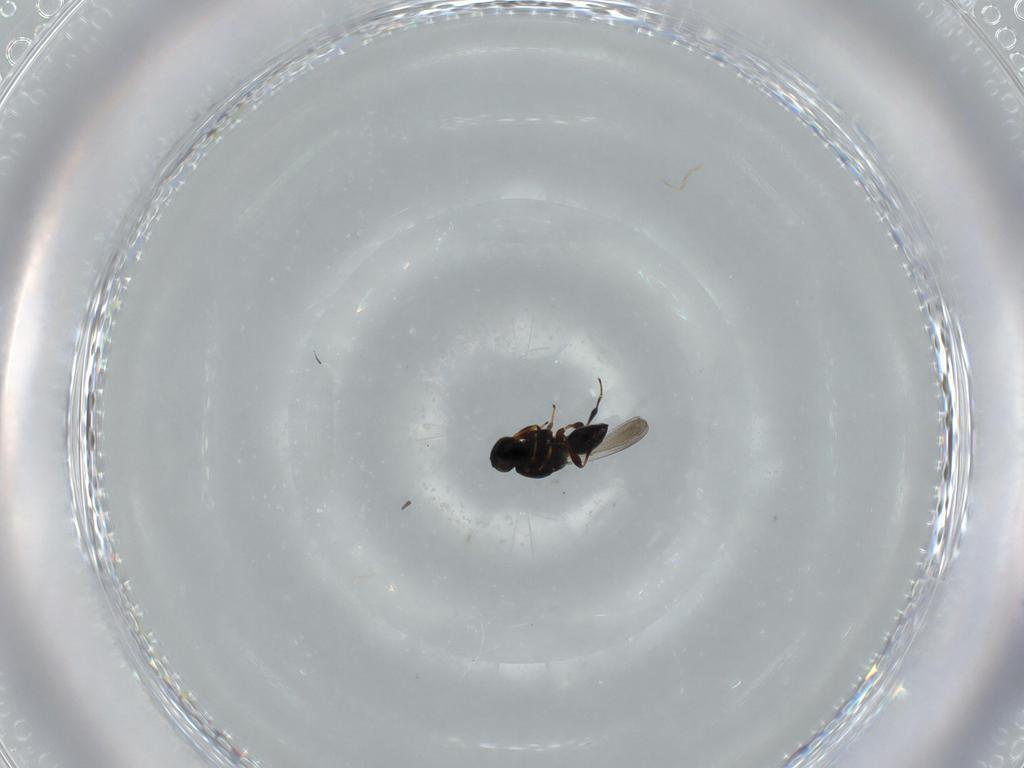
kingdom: Animalia
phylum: Arthropoda
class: Insecta
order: Hymenoptera
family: Platygastridae
